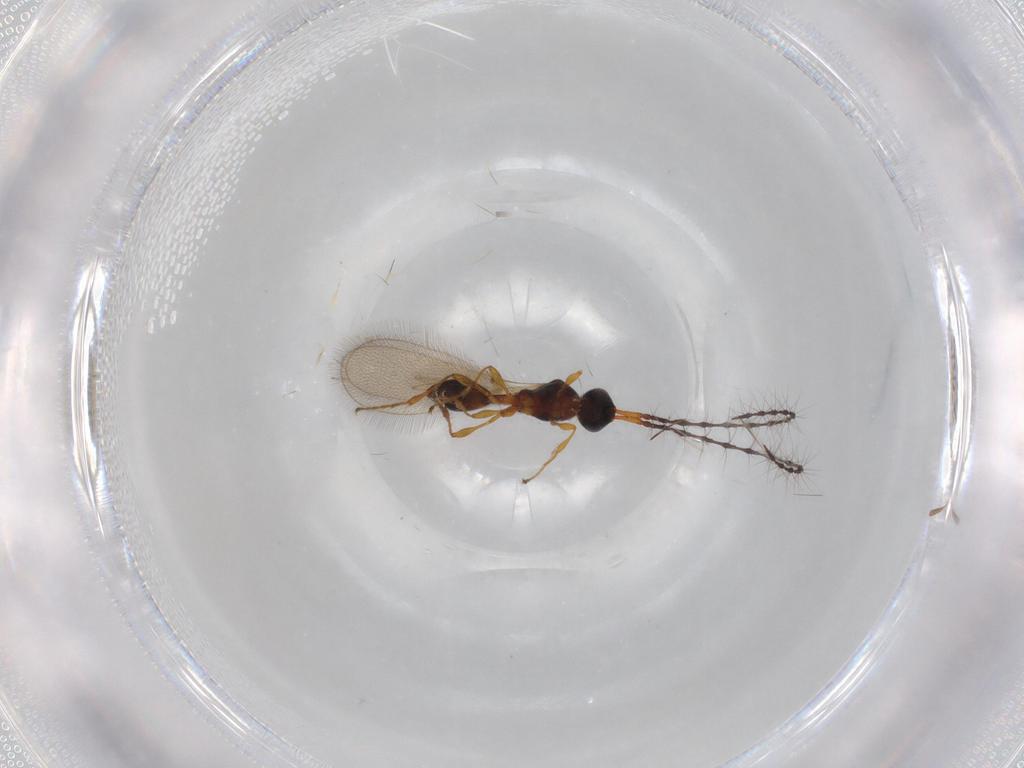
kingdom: Animalia
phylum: Arthropoda
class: Insecta
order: Hymenoptera
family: Diapriidae
